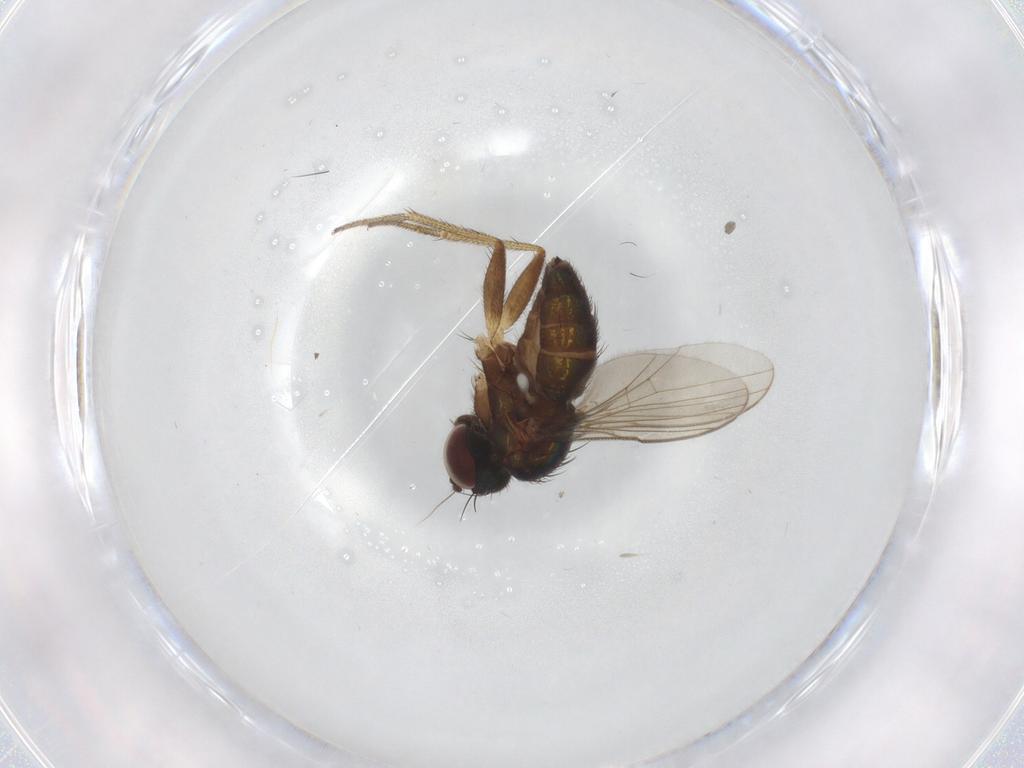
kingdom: Animalia
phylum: Arthropoda
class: Insecta
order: Diptera
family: Dolichopodidae
